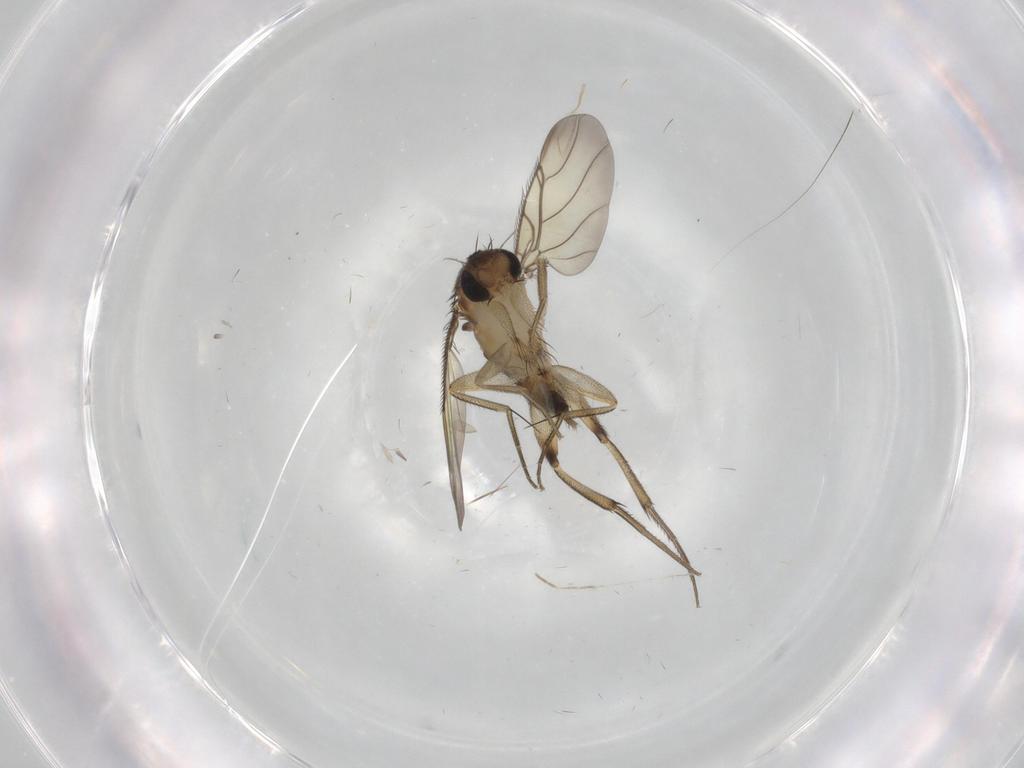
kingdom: Animalia
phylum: Arthropoda
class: Insecta
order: Diptera
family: Phoridae
